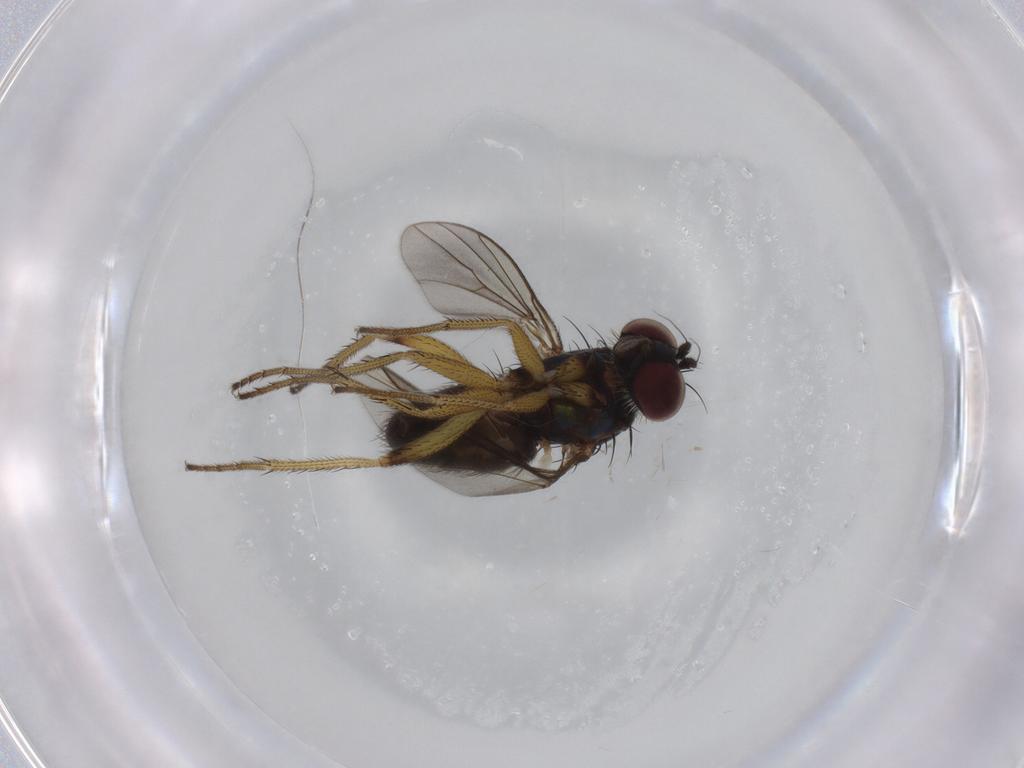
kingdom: Animalia
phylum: Arthropoda
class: Insecta
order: Diptera
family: Dolichopodidae
